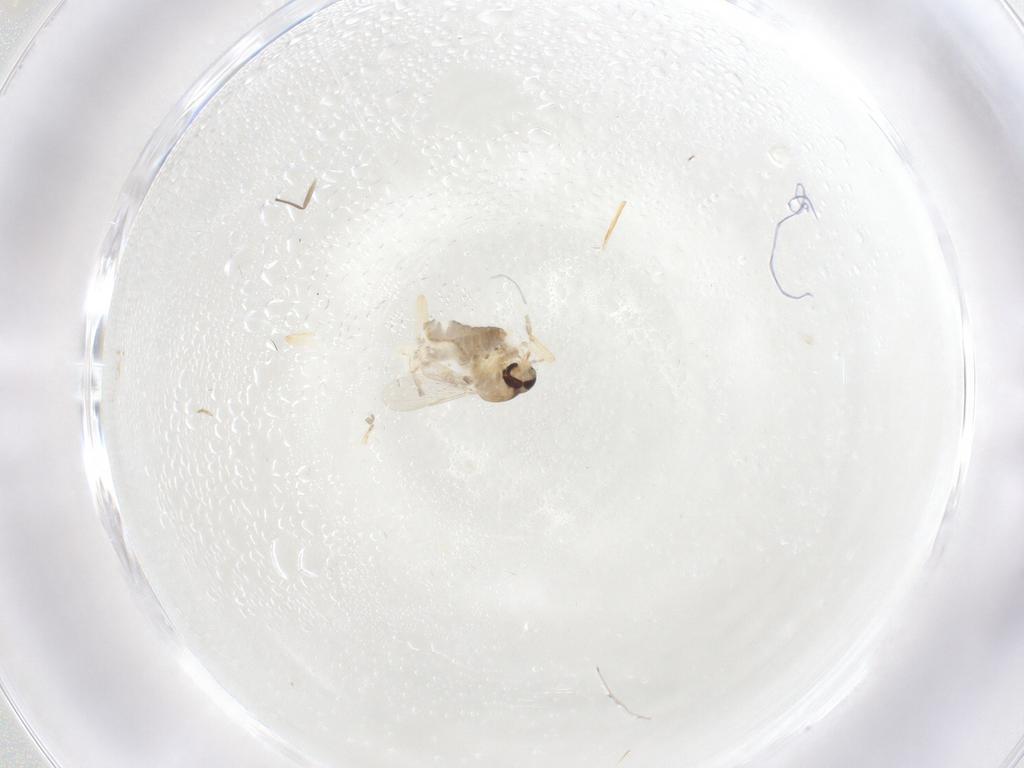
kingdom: Animalia
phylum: Arthropoda
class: Insecta
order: Diptera
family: Ceratopogonidae
